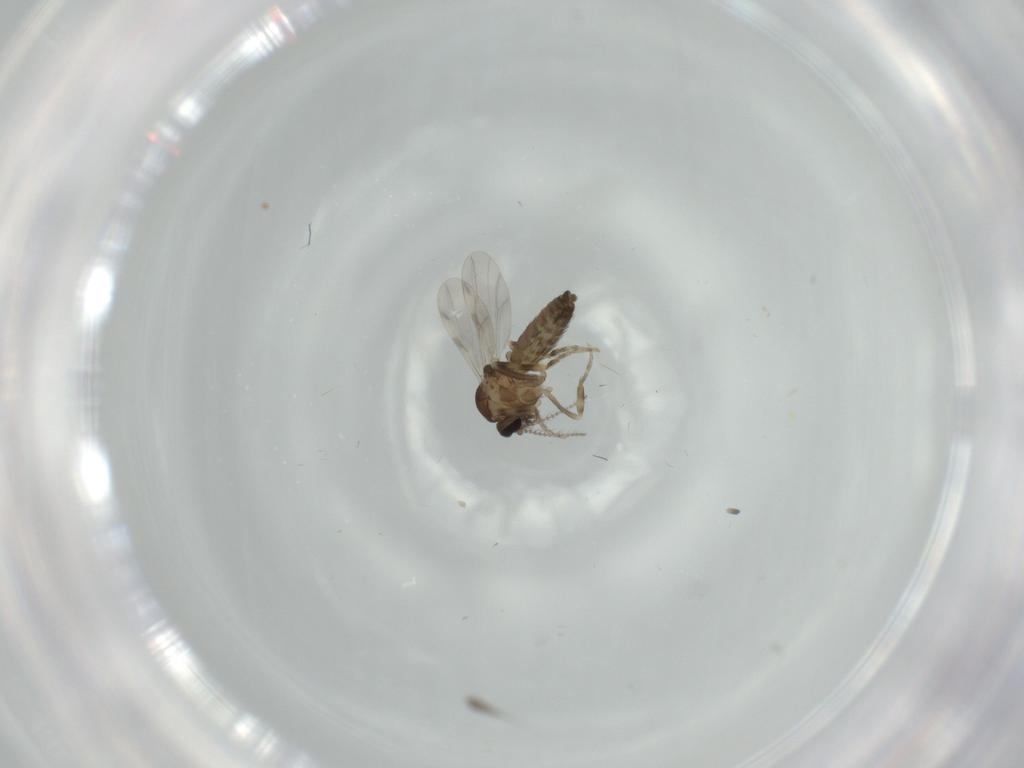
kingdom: Animalia
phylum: Arthropoda
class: Insecta
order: Diptera
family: Ceratopogonidae
